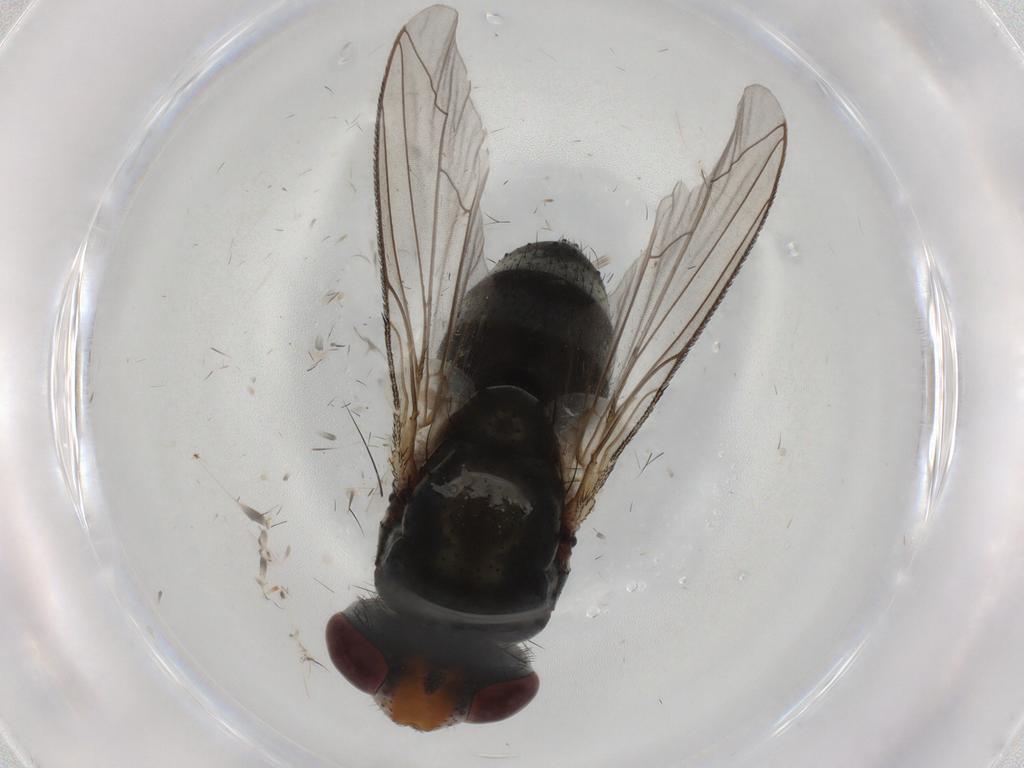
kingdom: Animalia
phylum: Arthropoda
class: Insecta
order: Diptera
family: Sarcophagidae
